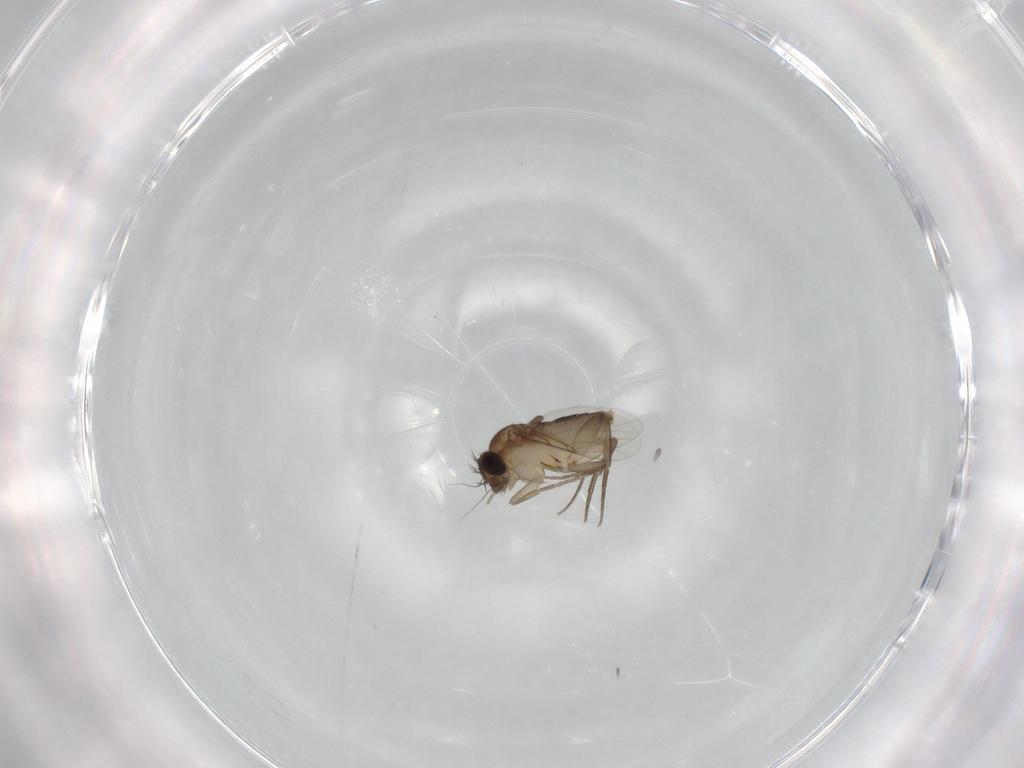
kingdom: Animalia
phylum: Arthropoda
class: Insecta
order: Diptera
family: Phoridae
